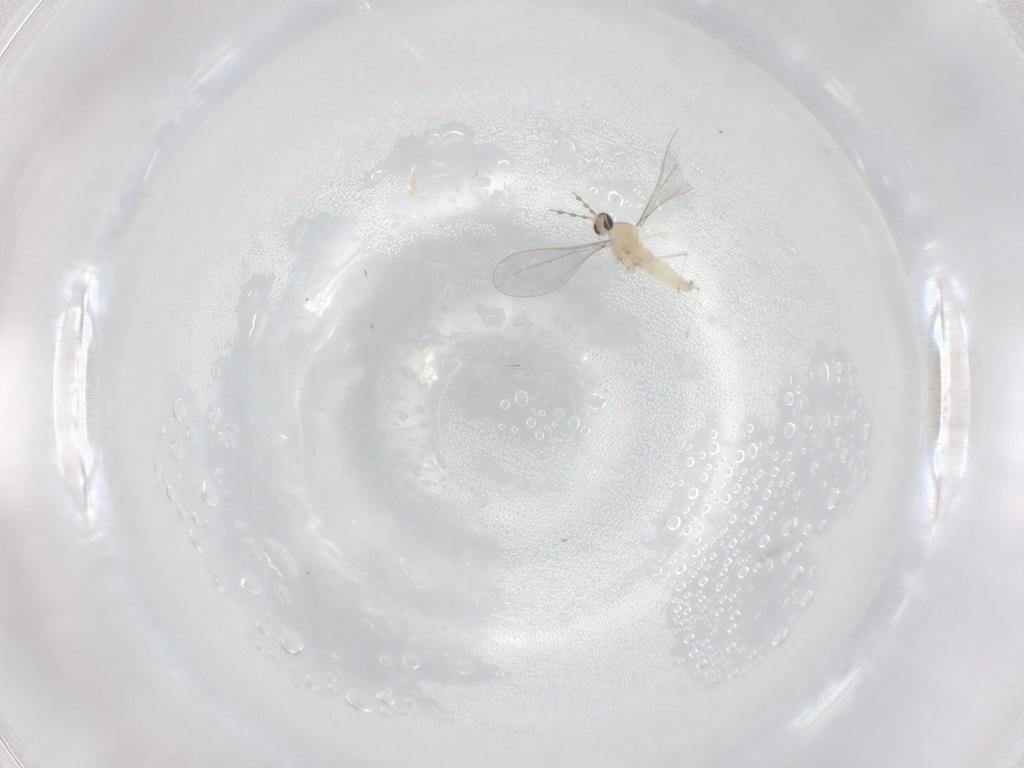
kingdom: Animalia
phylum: Arthropoda
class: Insecta
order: Diptera
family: Cecidomyiidae
